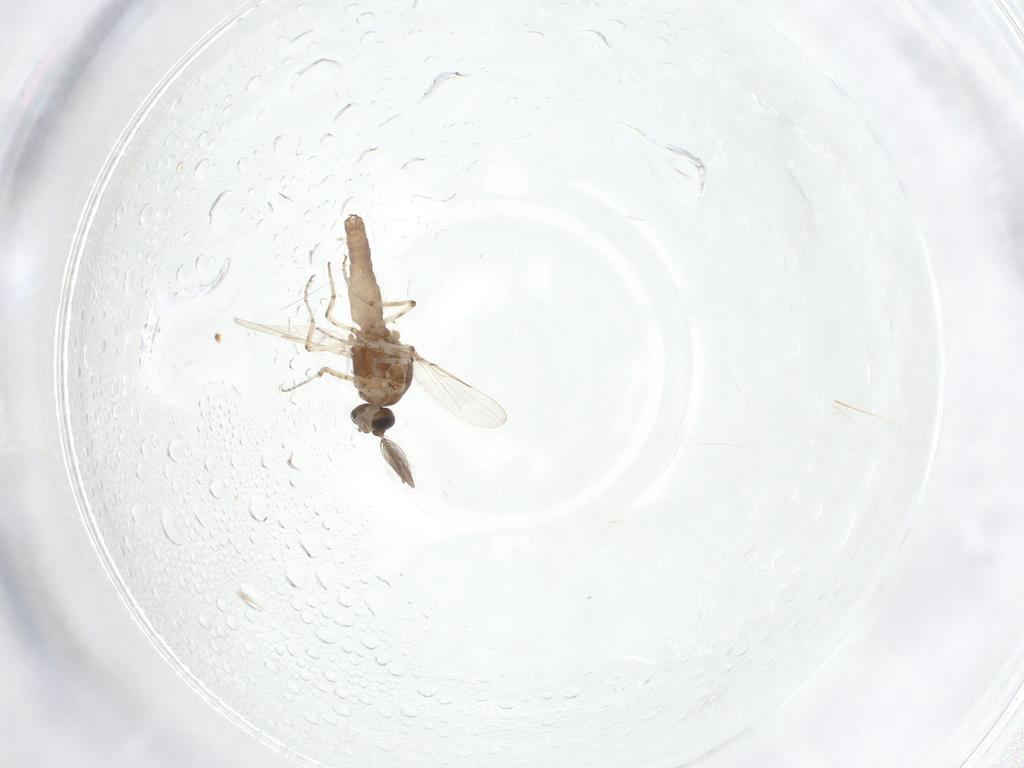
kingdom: Animalia
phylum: Arthropoda
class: Insecta
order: Diptera
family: Ceratopogonidae
